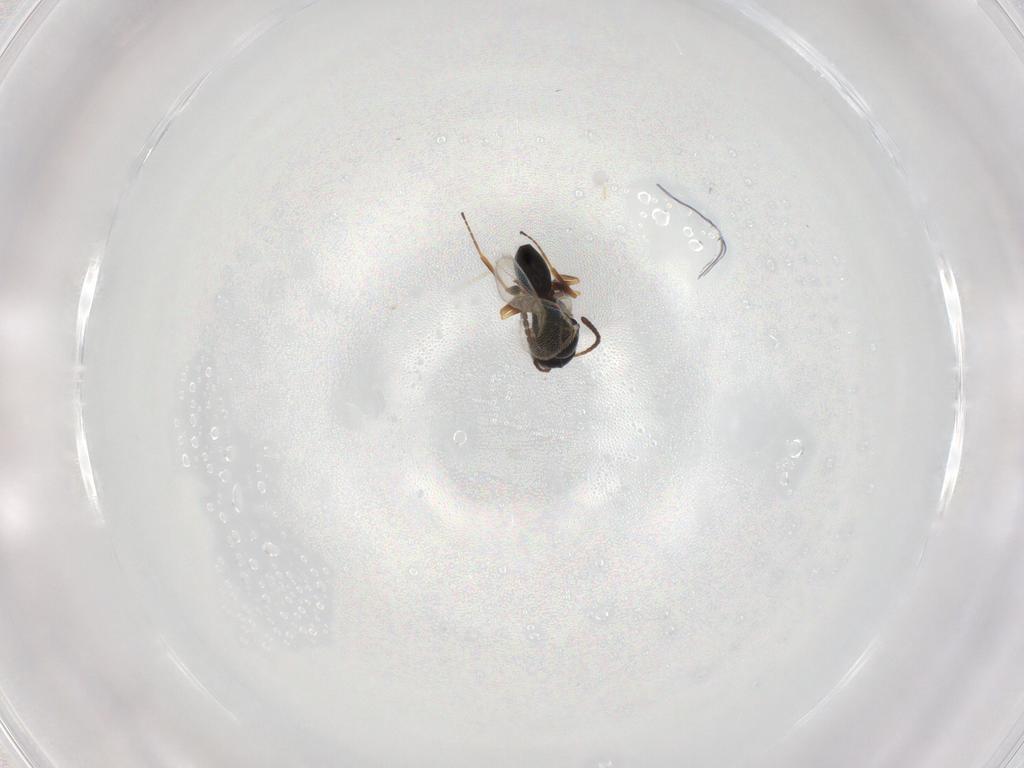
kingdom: Animalia
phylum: Arthropoda
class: Insecta
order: Hymenoptera
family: Figitidae
